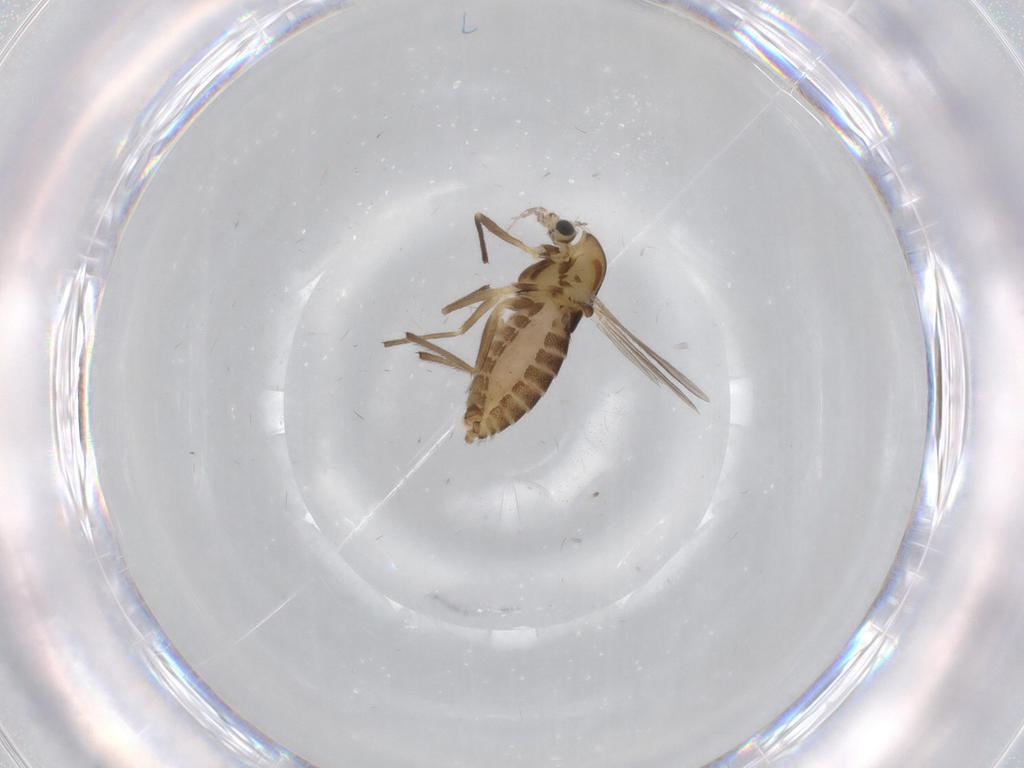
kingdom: Animalia
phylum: Arthropoda
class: Insecta
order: Diptera
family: Chironomidae
